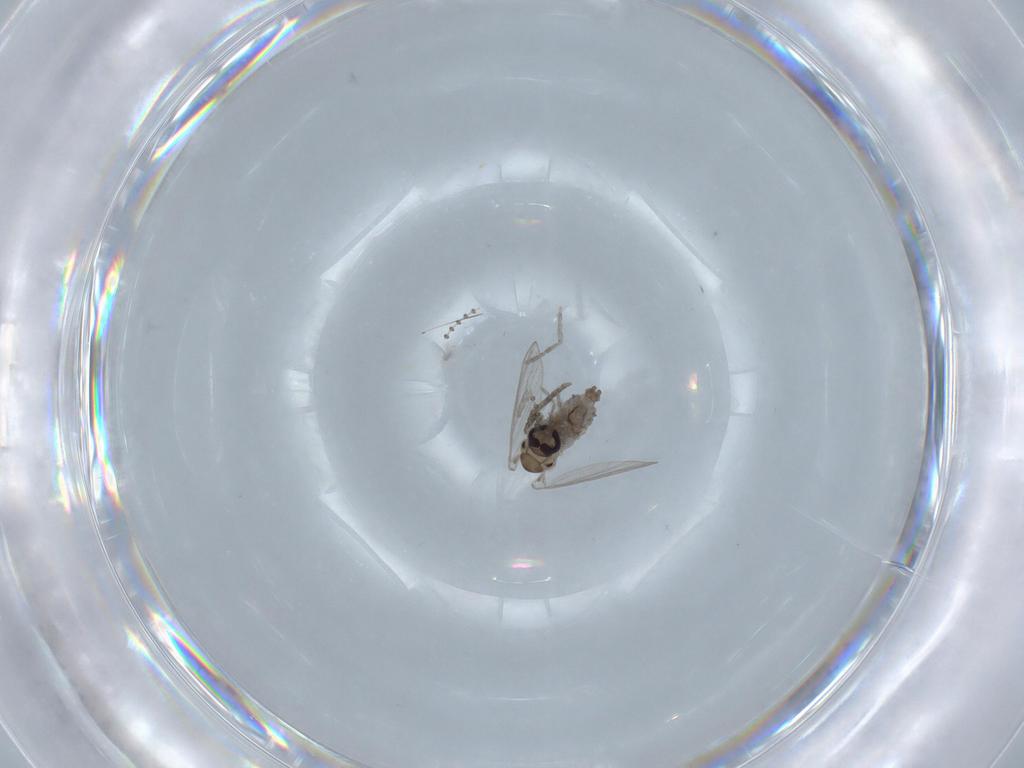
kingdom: Animalia
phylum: Arthropoda
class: Insecta
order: Diptera
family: Psychodidae
